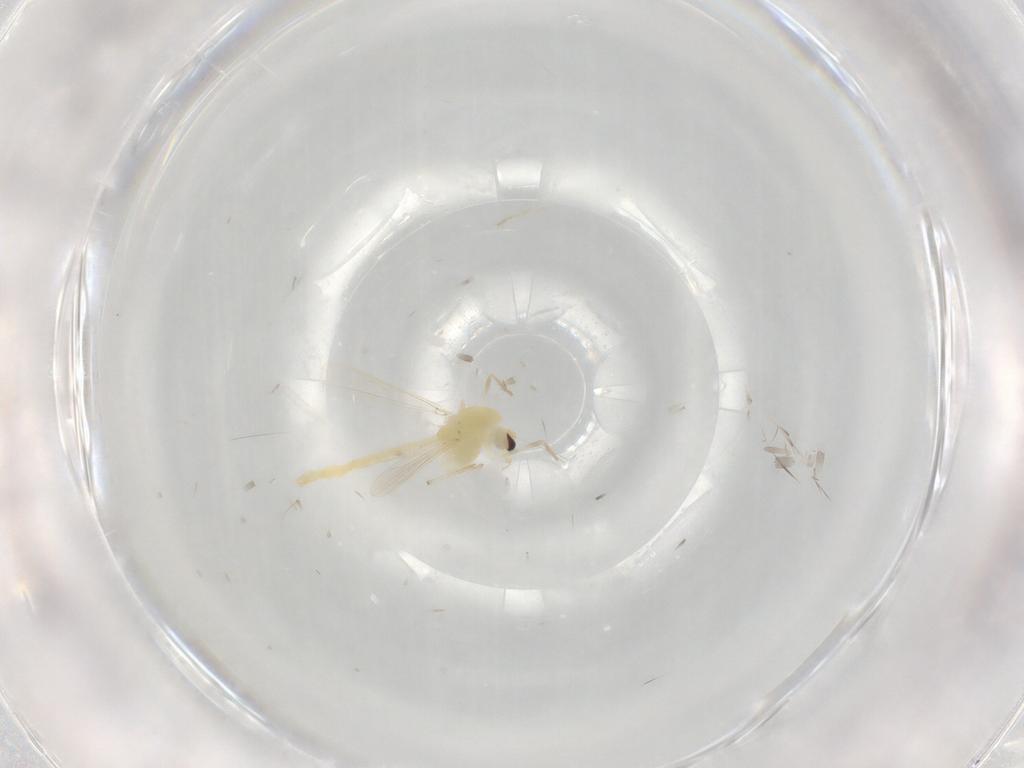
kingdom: Animalia
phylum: Arthropoda
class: Insecta
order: Diptera
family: Chironomidae
